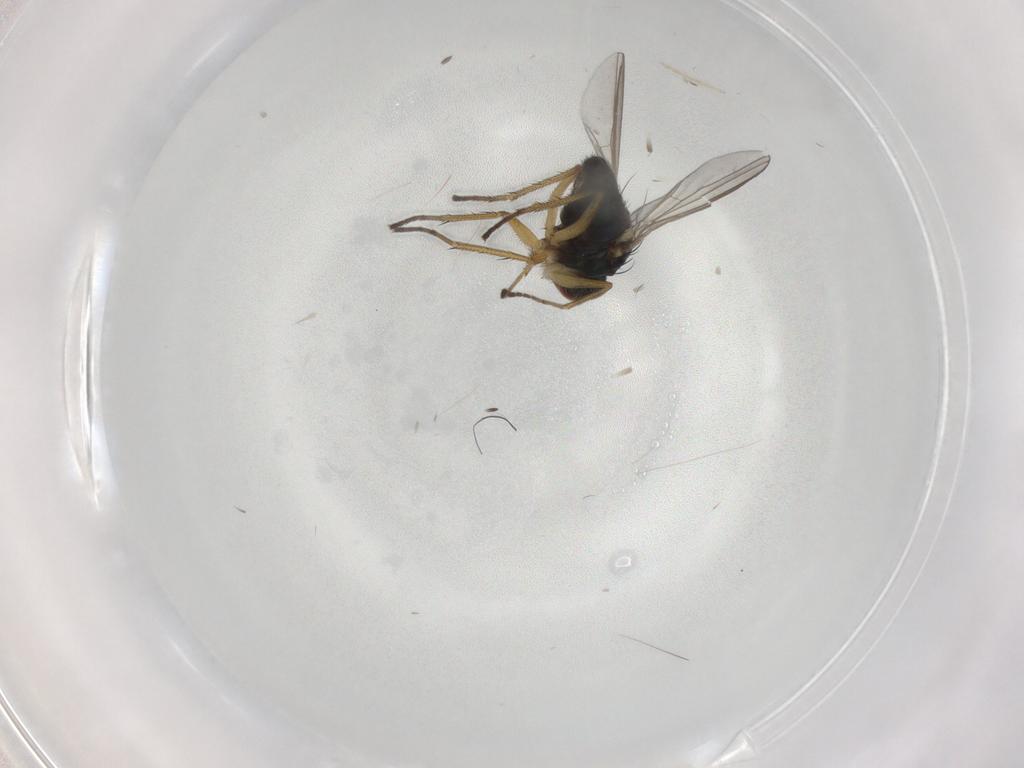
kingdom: Animalia
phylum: Arthropoda
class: Insecta
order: Diptera
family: Dolichopodidae
